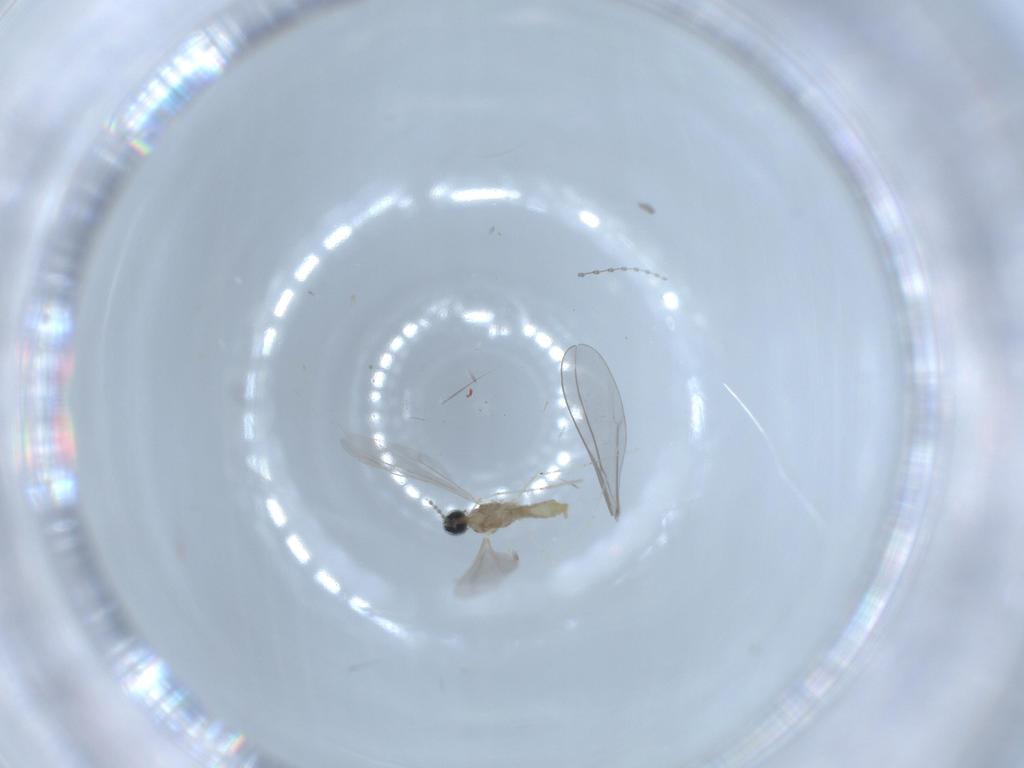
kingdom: Animalia
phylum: Arthropoda
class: Insecta
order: Diptera
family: Cecidomyiidae
